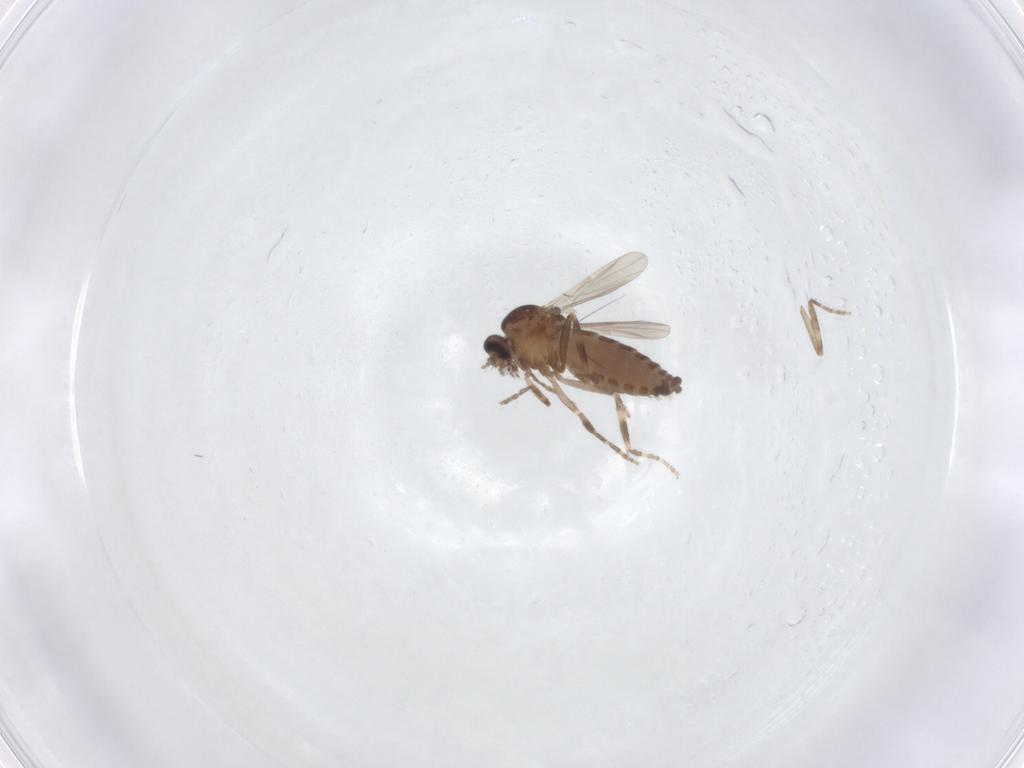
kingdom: Animalia
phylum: Arthropoda
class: Insecta
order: Diptera
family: Ceratopogonidae
